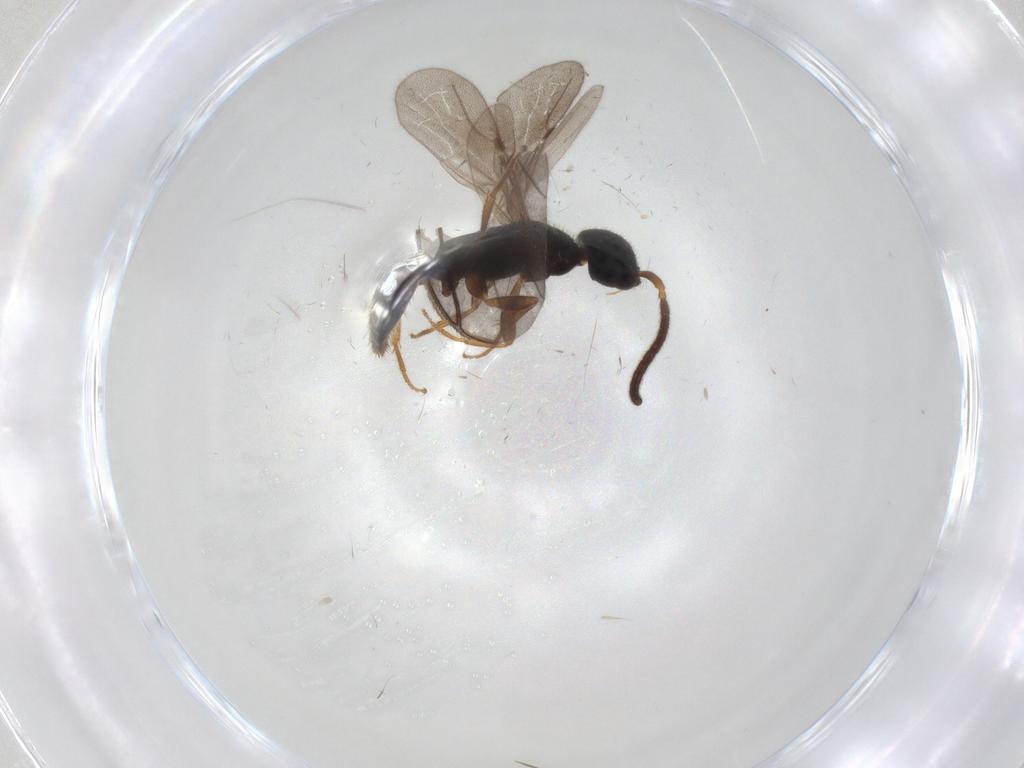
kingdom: Animalia
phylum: Arthropoda
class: Insecta
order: Hymenoptera
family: Bethylidae
